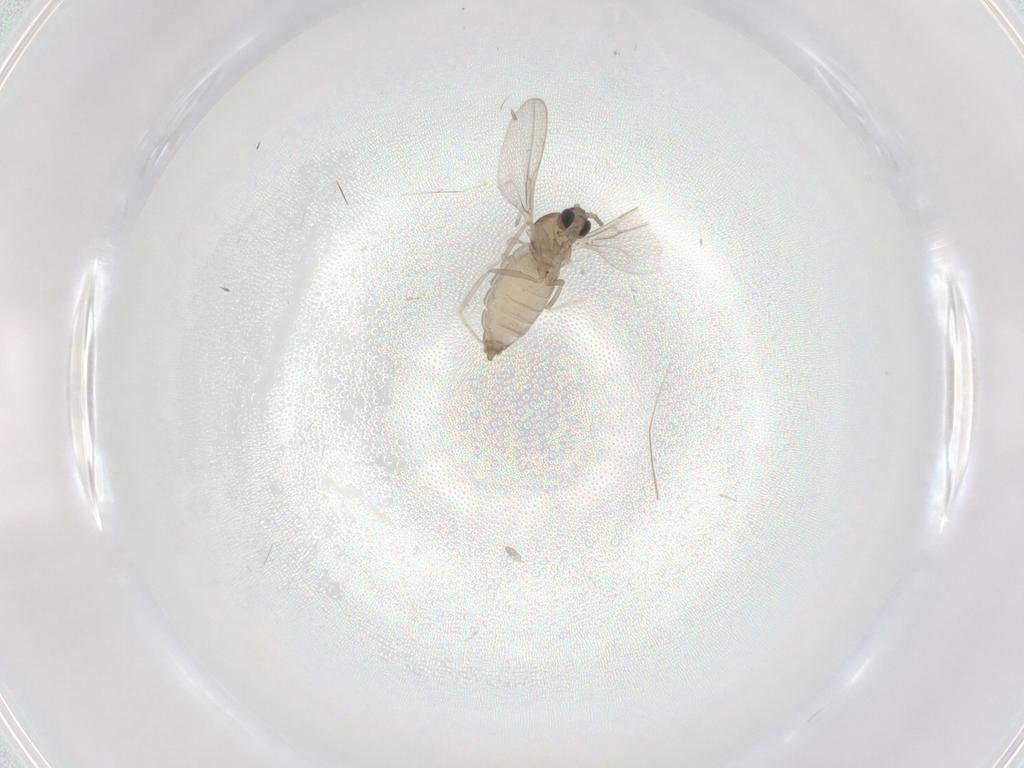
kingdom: Animalia
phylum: Arthropoda
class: Insecta
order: Diptera
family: Cecidomyiidae
